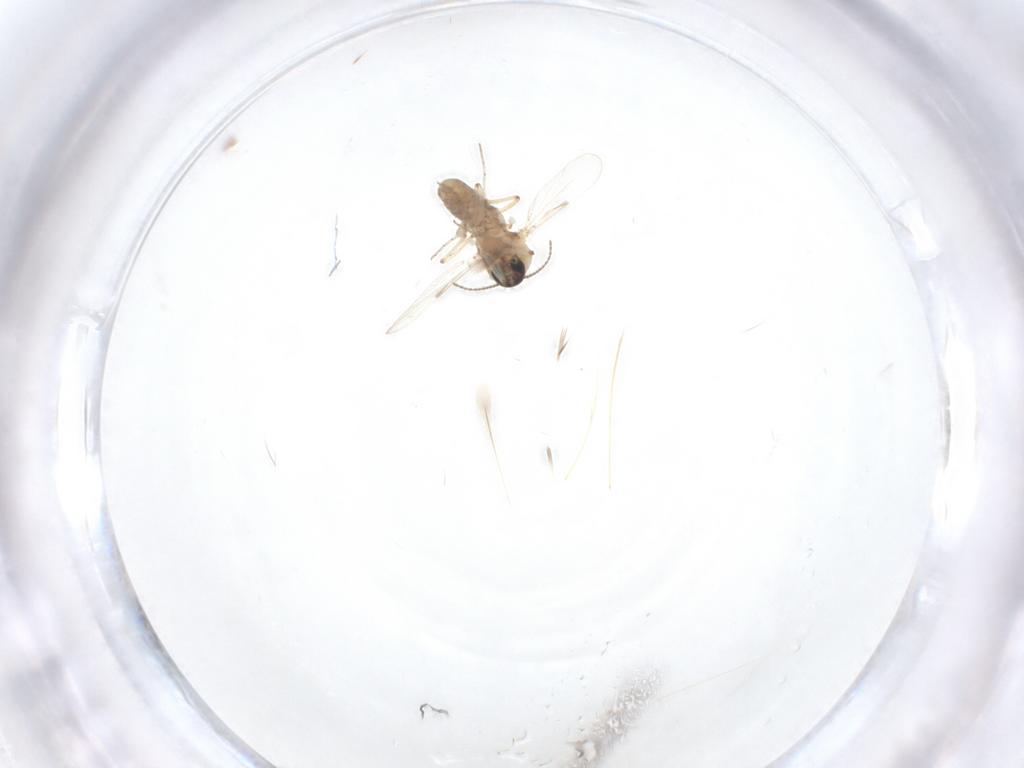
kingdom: Animalia
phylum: Arthropoda
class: Insecta
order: Diptera
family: Ceratopogonidae
